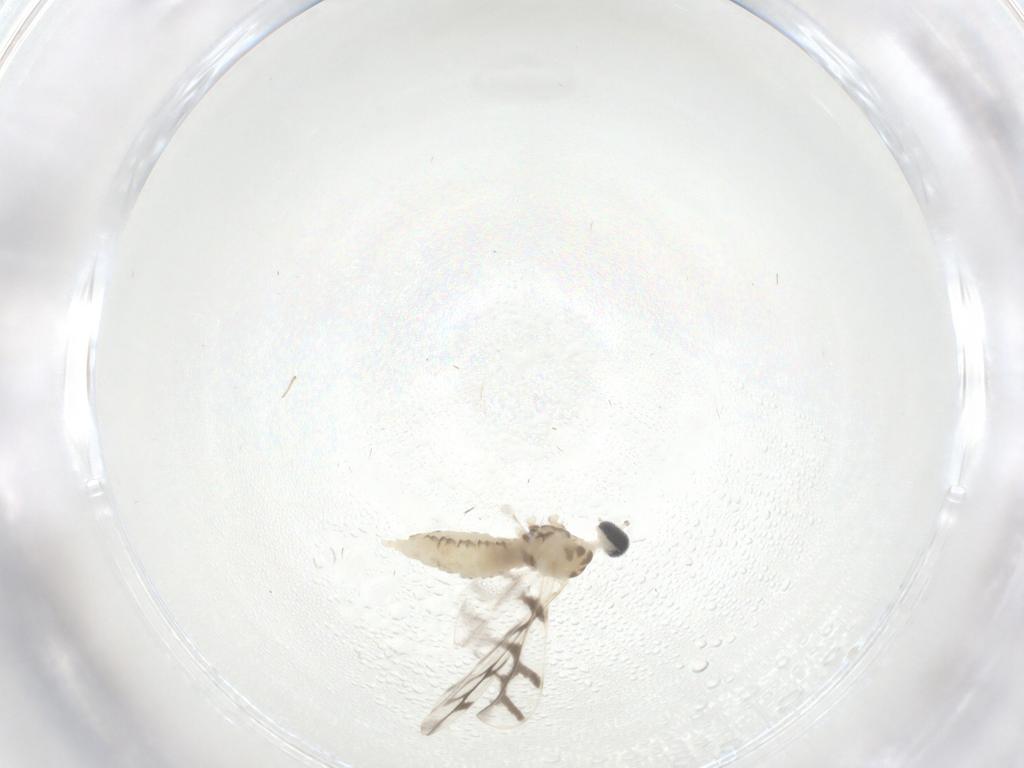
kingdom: Animalia
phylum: Arthropoda
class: Insecta
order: Diptera
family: Cecidomyiidae
